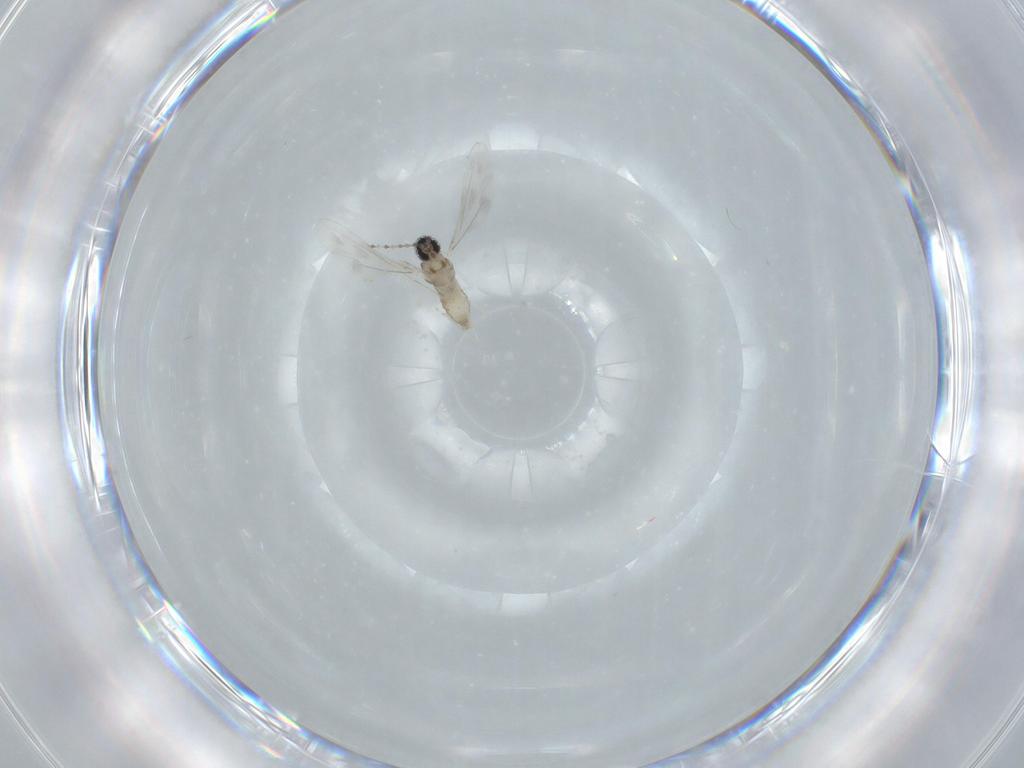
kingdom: Animalia
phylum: Arthropoda
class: Insecta
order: Diptera
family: Cecidomyiidae
